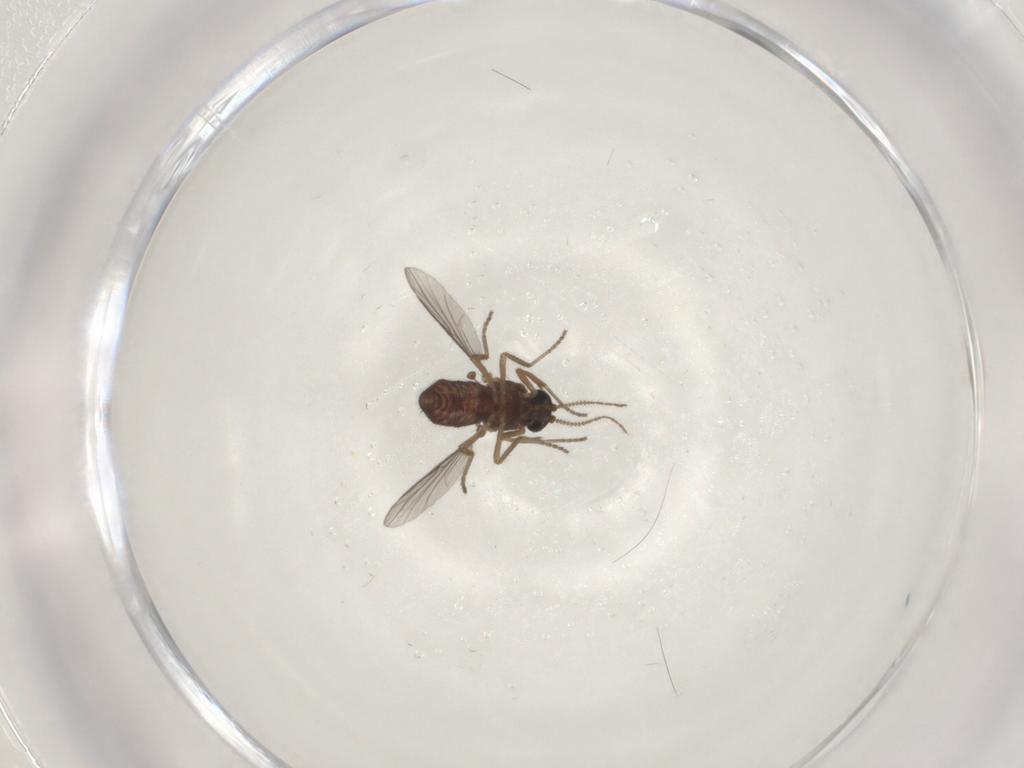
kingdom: Animalia
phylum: Arthropoda
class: Insecta
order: Diptera
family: Ceratopogonidae
